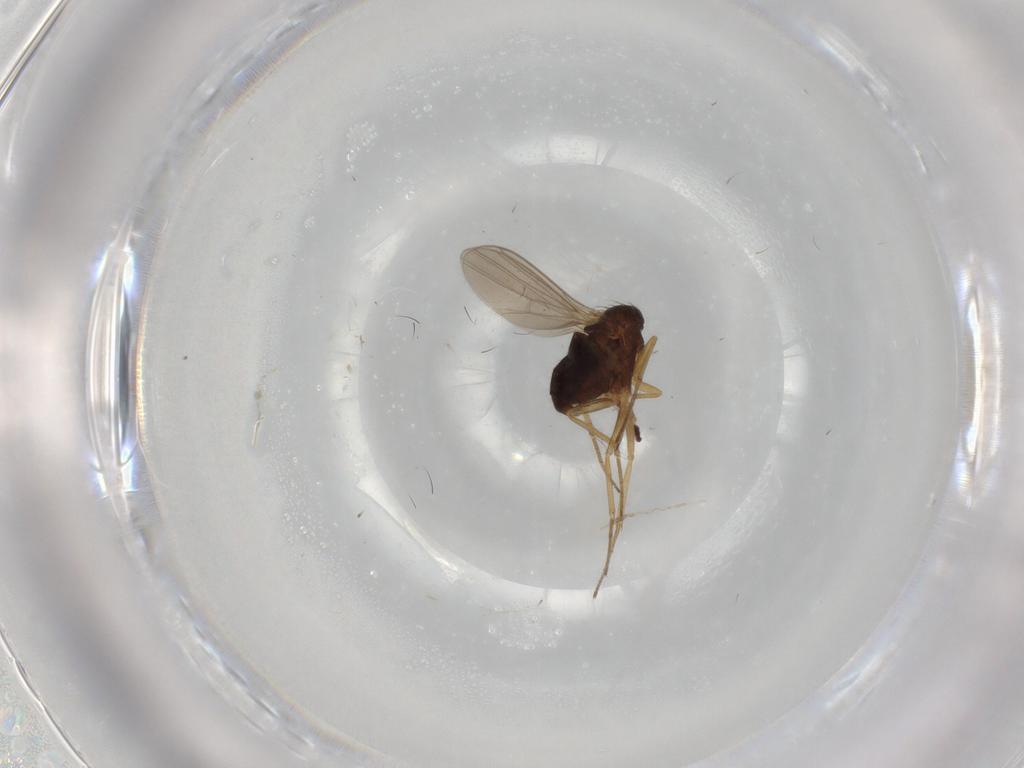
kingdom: Animalia
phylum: Arthropoda
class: Insecta
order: Diptera
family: Dolichopodidae
